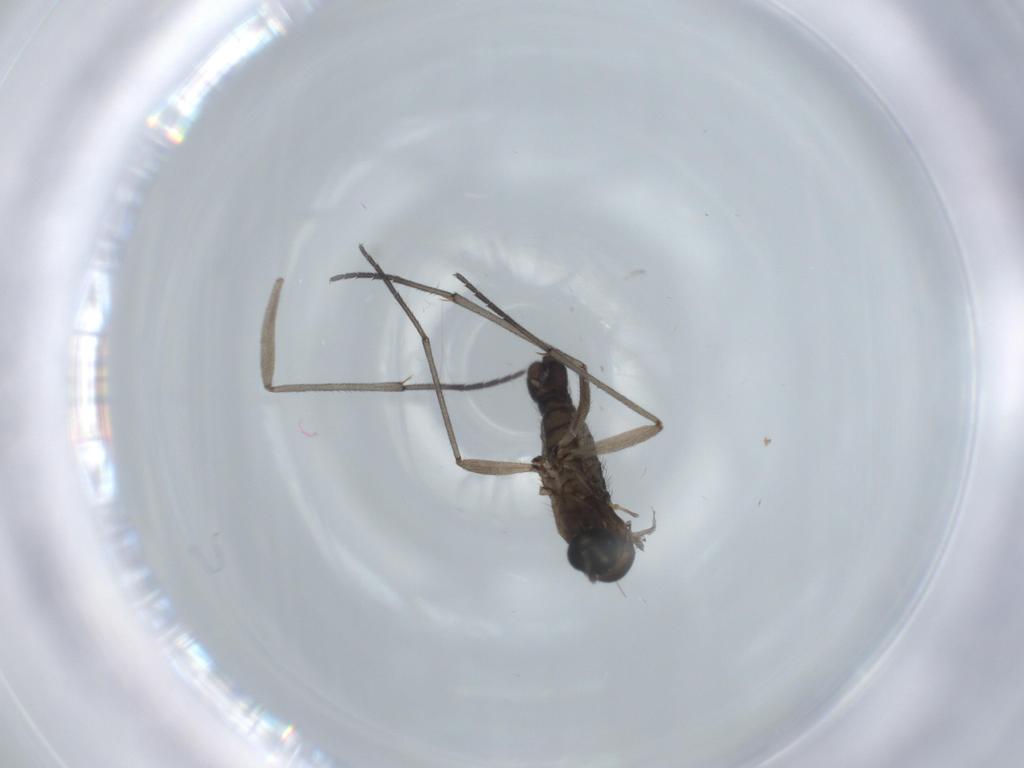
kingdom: Animalia
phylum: Arthropoda
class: Insecta
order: Diptera
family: Sciaridae
